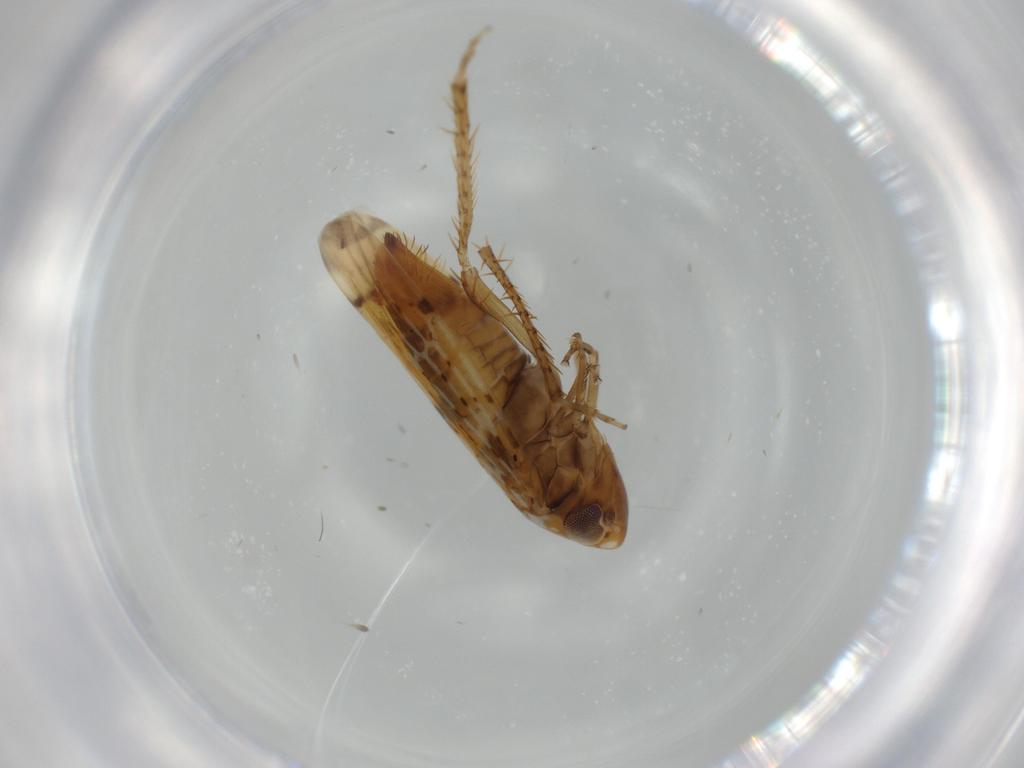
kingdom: Animalia
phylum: Arthropoda
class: Insecta
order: Hemiptera
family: Cicadellidae
